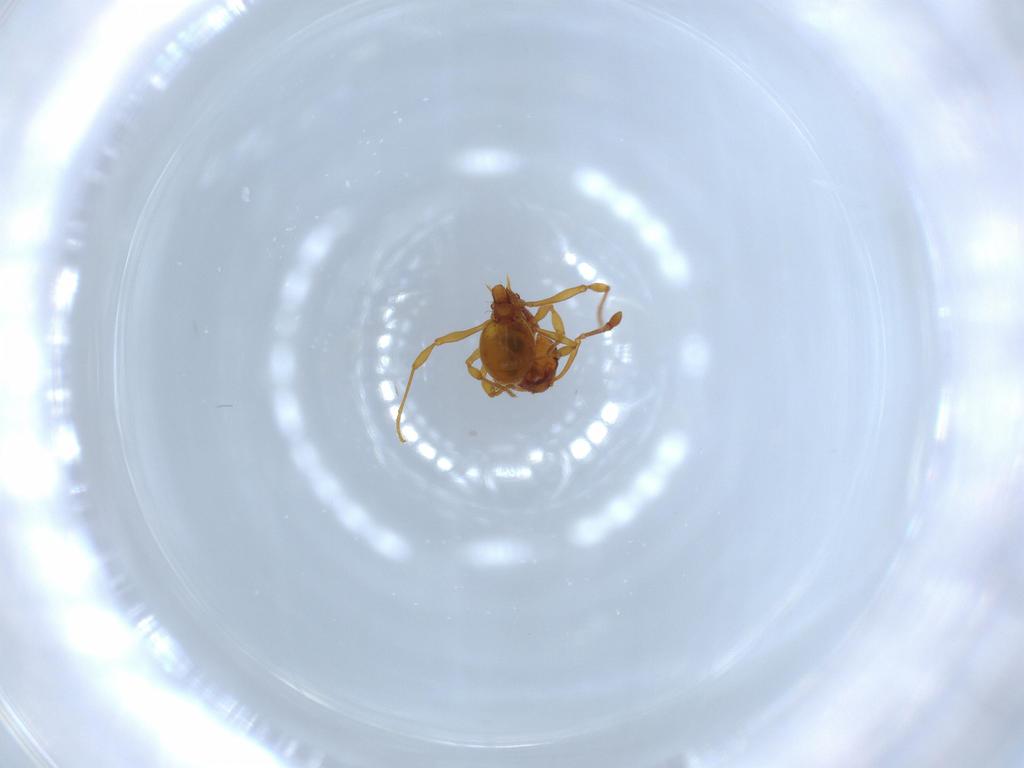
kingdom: Animalia
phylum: Arthropoda
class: Insecta
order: Hymenoptera
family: Formicidae
